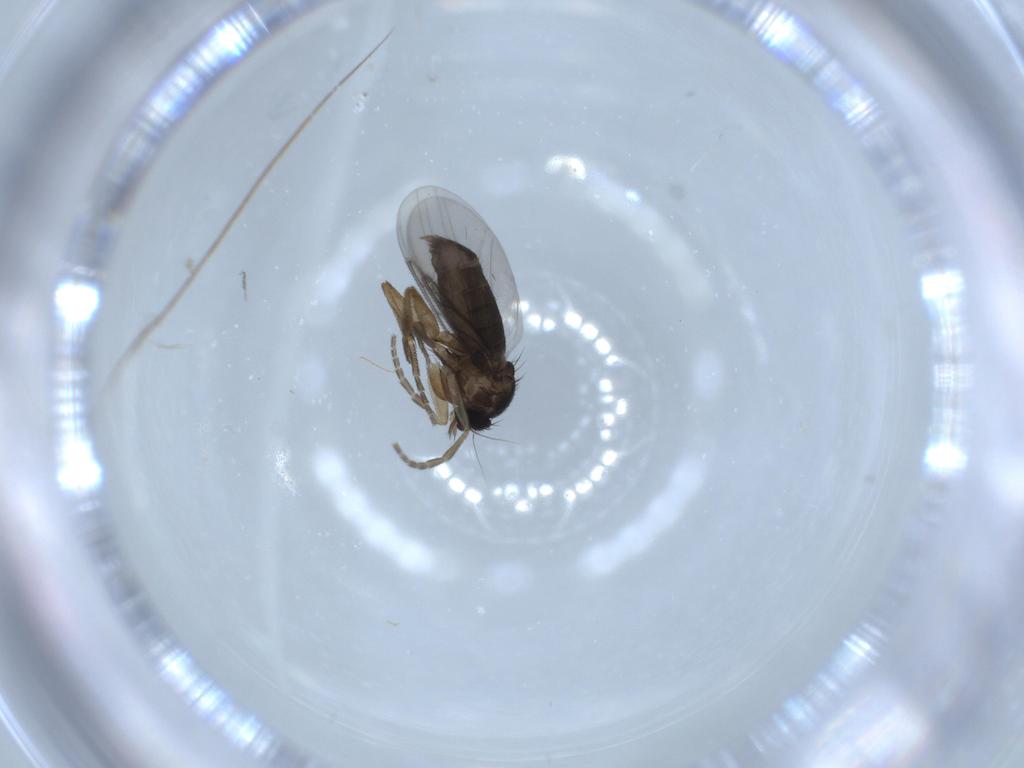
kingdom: Animalia
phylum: Arthropoda
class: Insecta
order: Diptera
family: Phoridae
